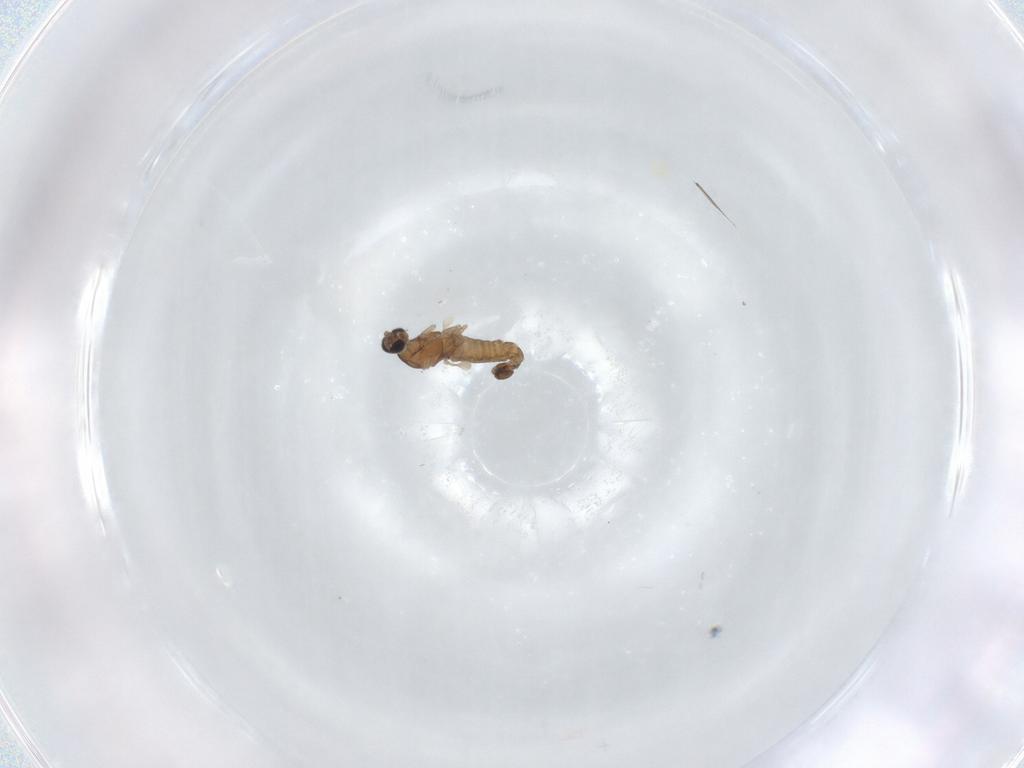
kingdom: Animalia
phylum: Arthropoda
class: Insecta
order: Diptera
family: Cecidomyiidae
